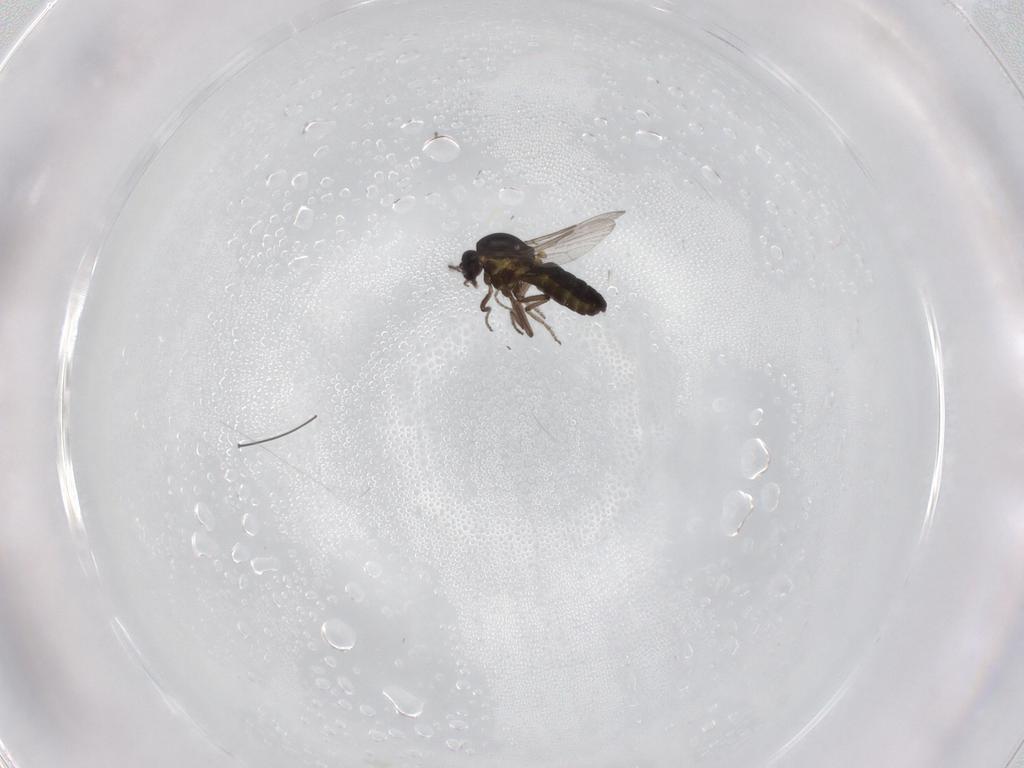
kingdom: Animalia
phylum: Arthropoda
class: Insecta
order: Diptera
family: Ceratopogonidae
